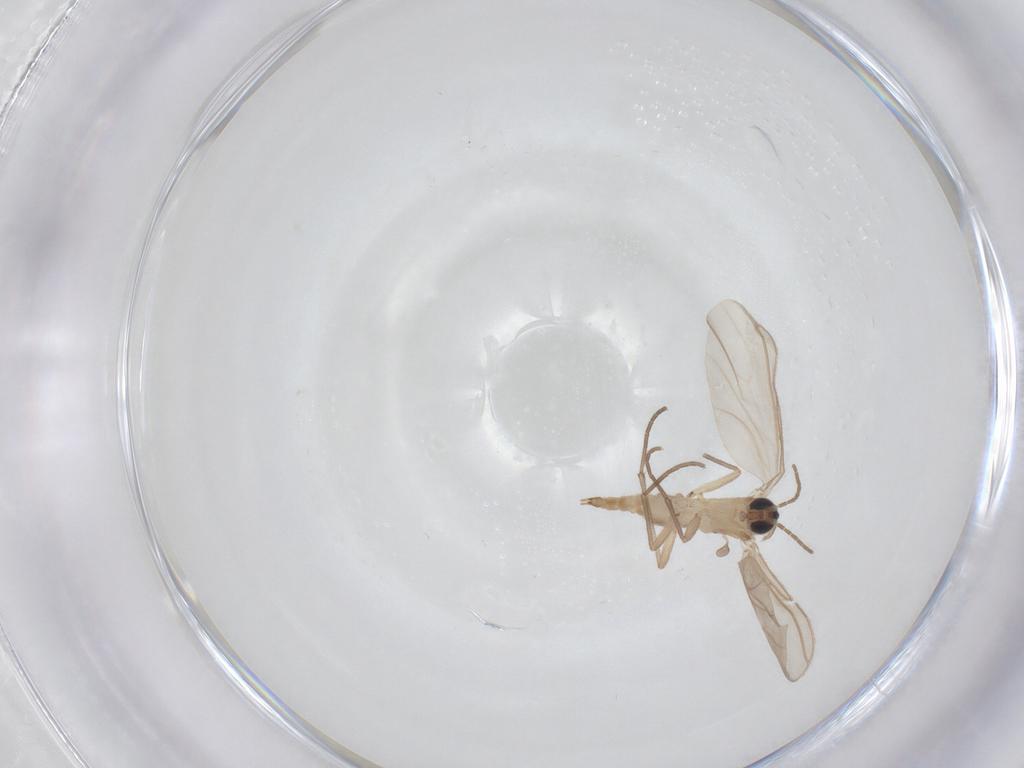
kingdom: Animalia
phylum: Arthropoda
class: Insecta
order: Diptera
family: Sciaridae
